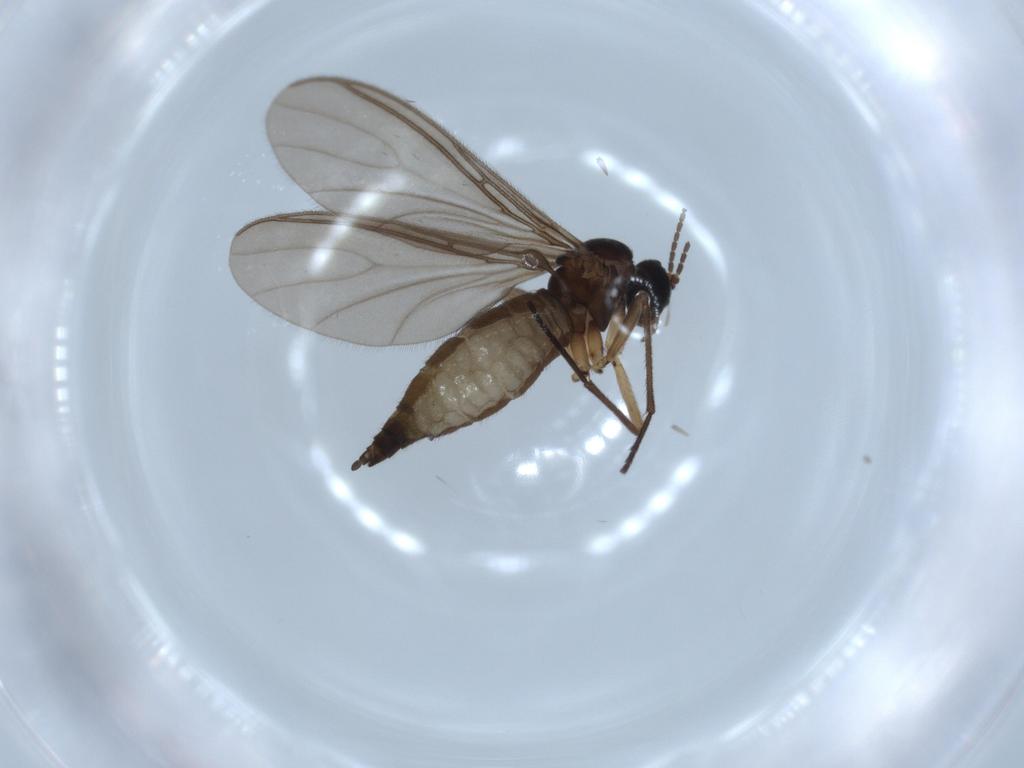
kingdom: Animalia
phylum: Arthropoda
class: Insecta
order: Diptera
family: Sciaridae
